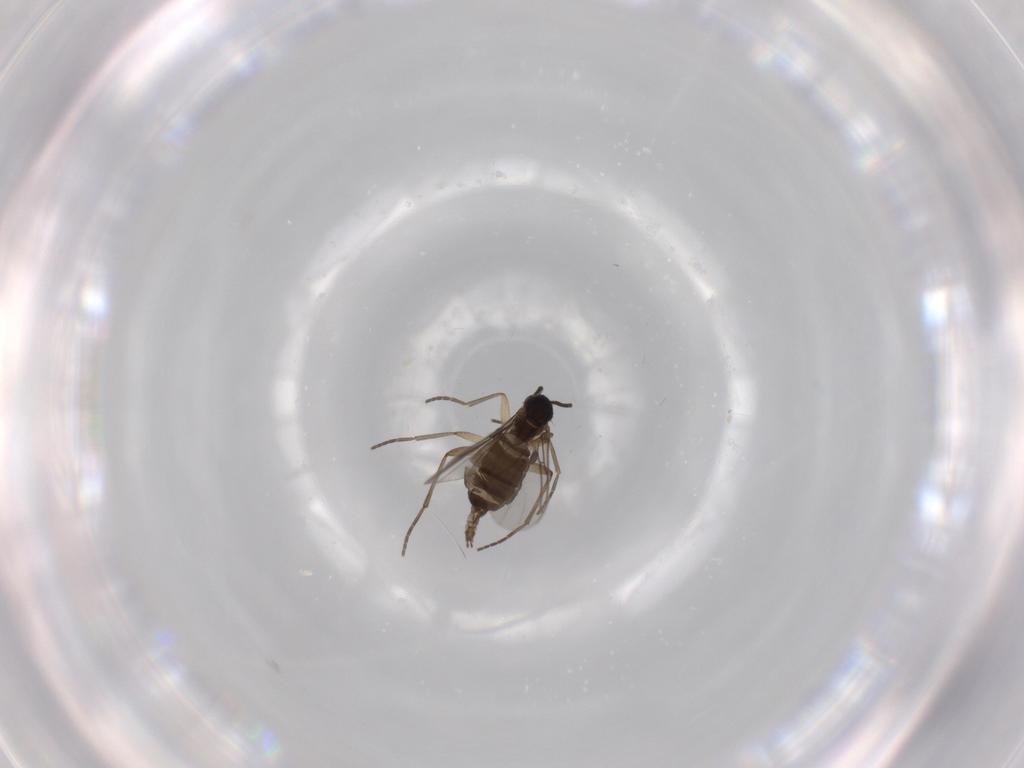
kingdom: Animalia
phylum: Arthropoda
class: Insecta
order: Diptera
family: Sciaridae
